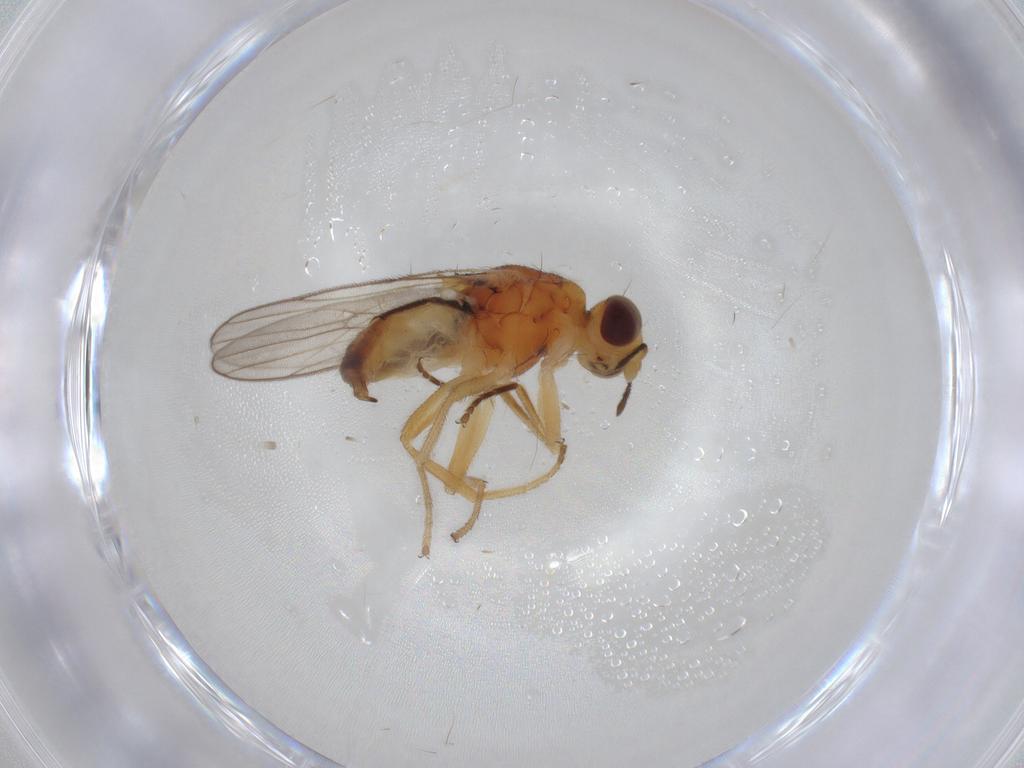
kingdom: Animalia
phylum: Arthropoda
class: Insecta
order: Diptera
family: Chloropidae
